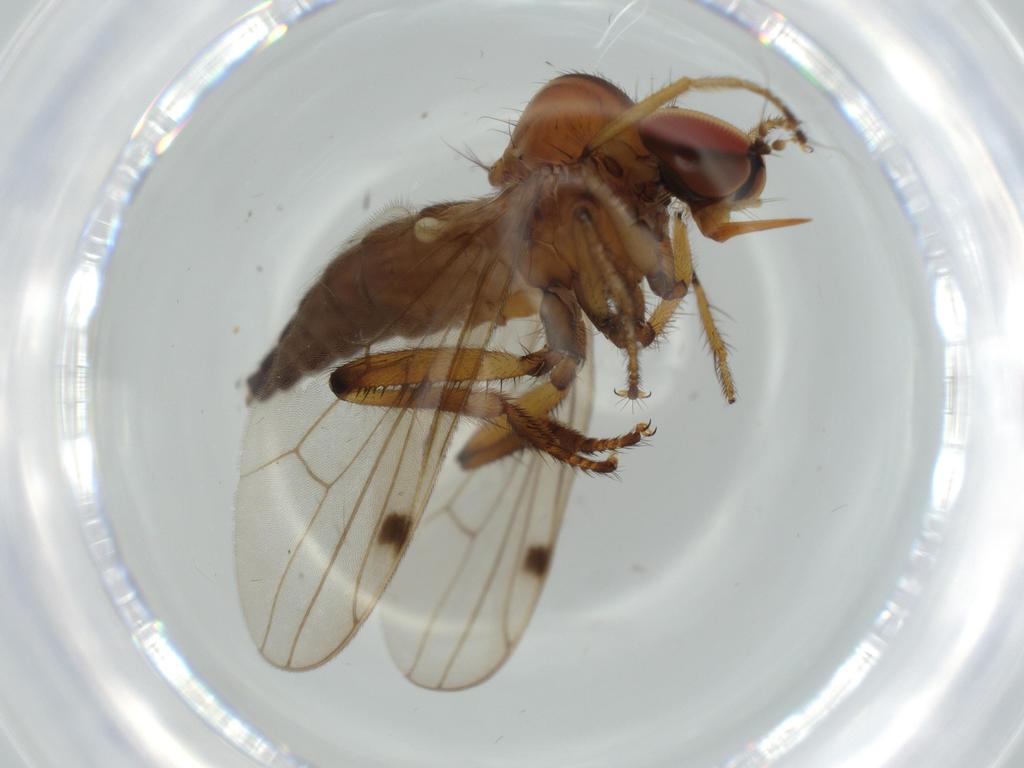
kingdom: Animalia
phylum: Arthropoda
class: Insecta
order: Diptera
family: Hybotidae
